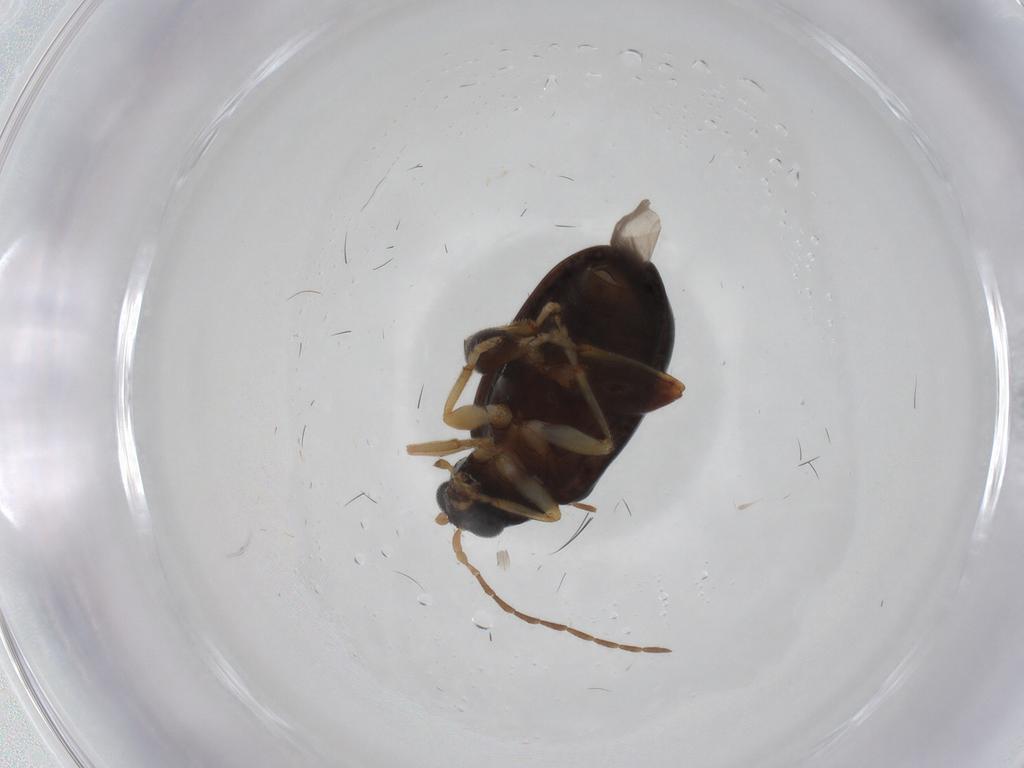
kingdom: Animalia
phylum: Arthropoda
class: Insecta
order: Coleoptera
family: Chrysomelidae
